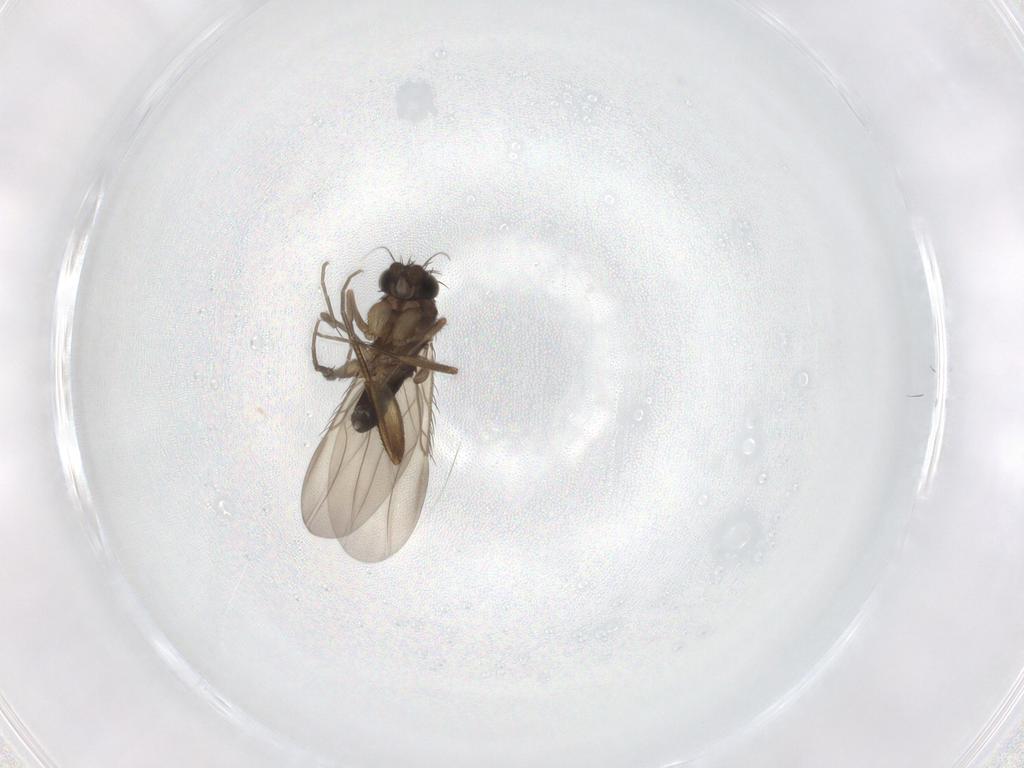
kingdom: Animalia
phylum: Arthropoda
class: Insecta
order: Diptera
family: Phoridae
